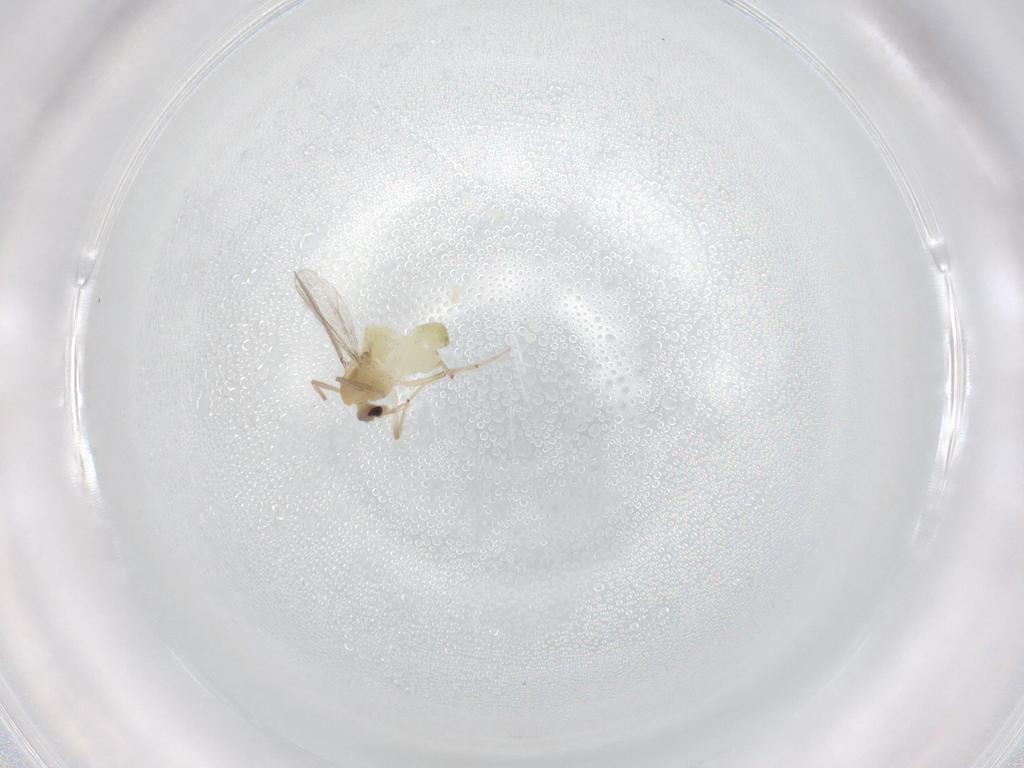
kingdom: Animalia
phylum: Arthropoda
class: Insecta
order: Diptera
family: Chironomidae
